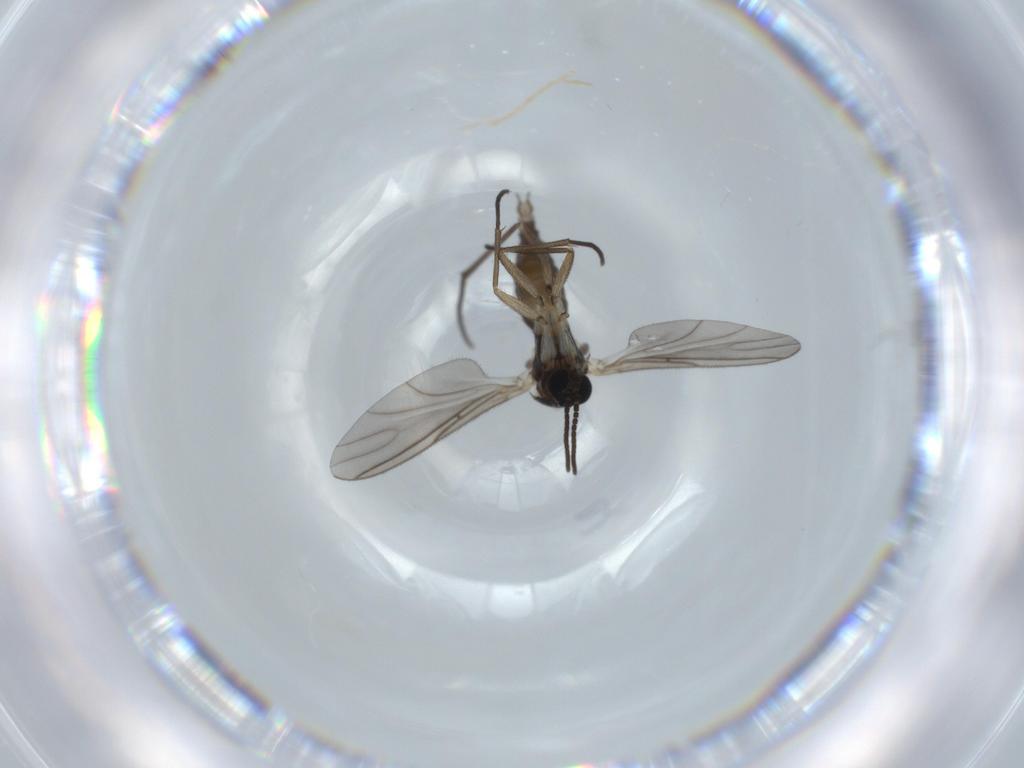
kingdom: Animalia
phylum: Arthropoda
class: Insecta
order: Diptera
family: Sciaridae
